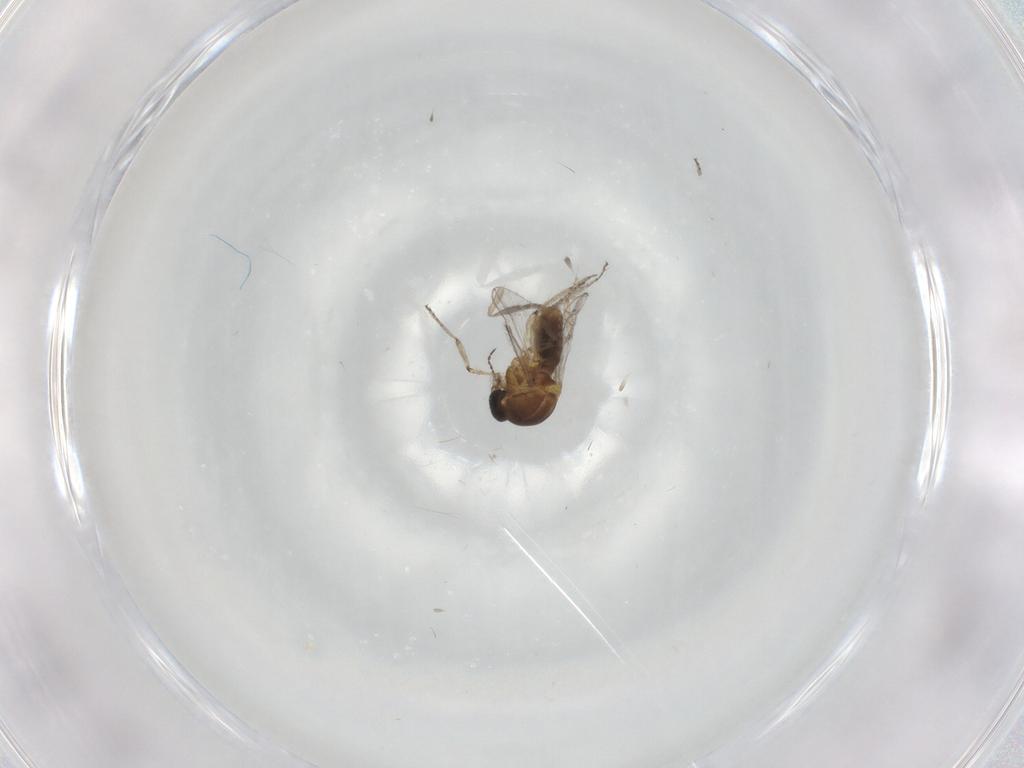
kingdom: Animalia
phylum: Arthropoda
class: Insecta
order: Diptera
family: Ceratopogonidae
